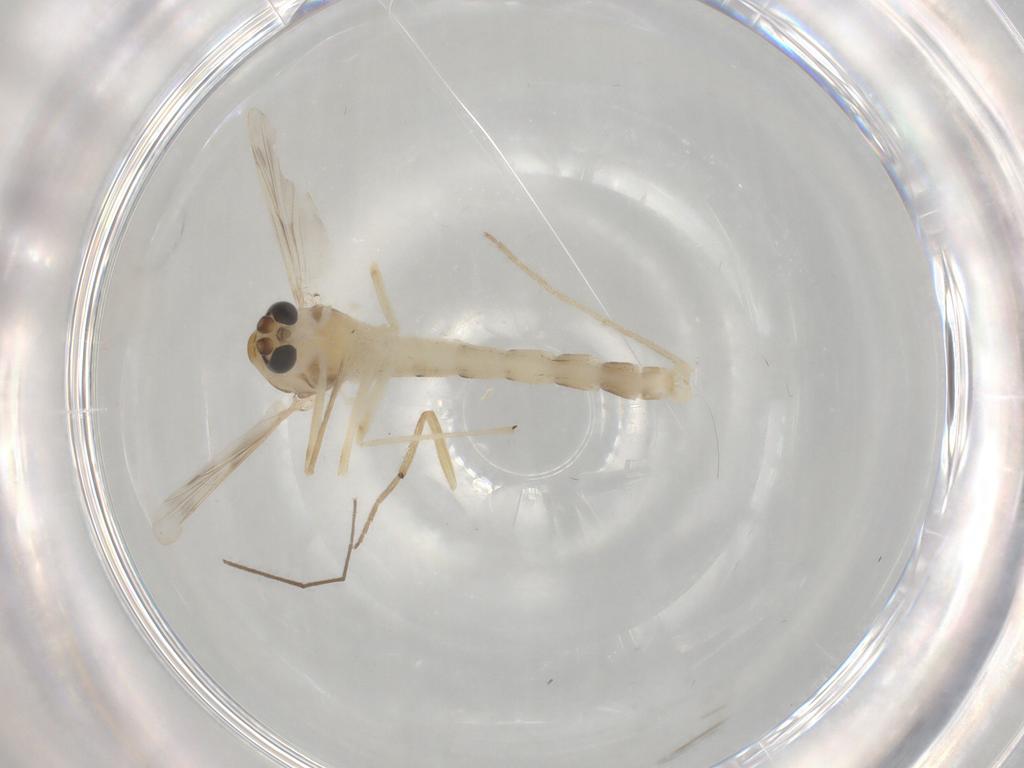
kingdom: Animalia
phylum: Arthropoda
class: Insecta
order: Diptera
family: Chironomidae
